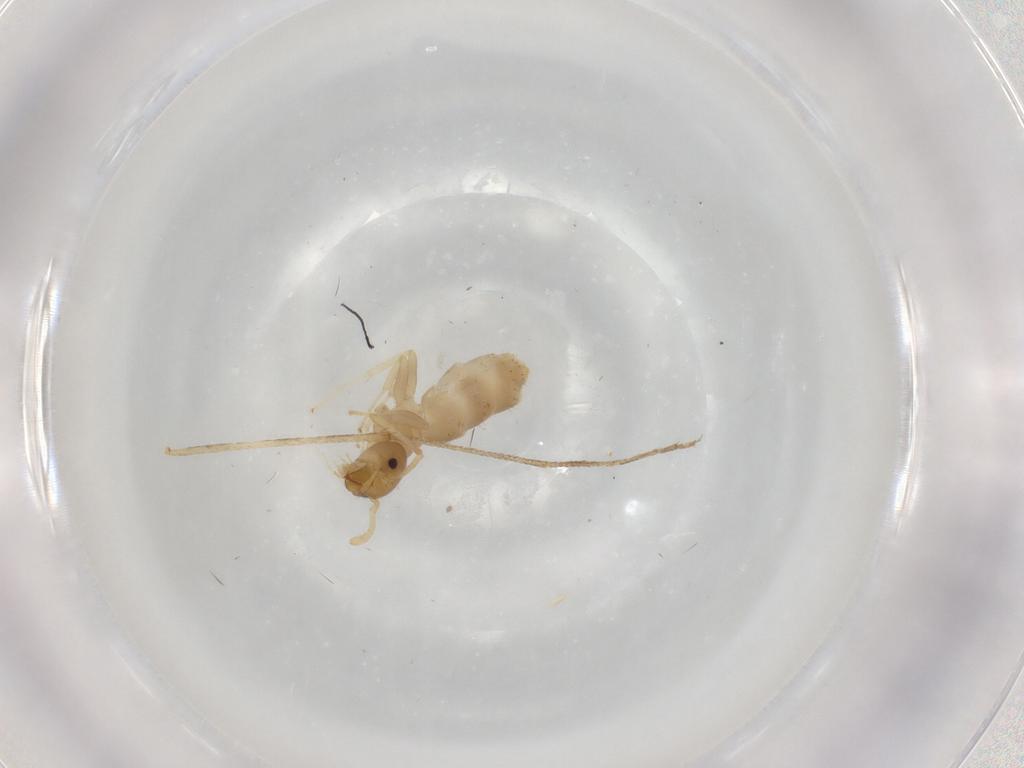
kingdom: Animalia
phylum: Arthropoda
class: Insecta
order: Hymenoptera
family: Formicidae
